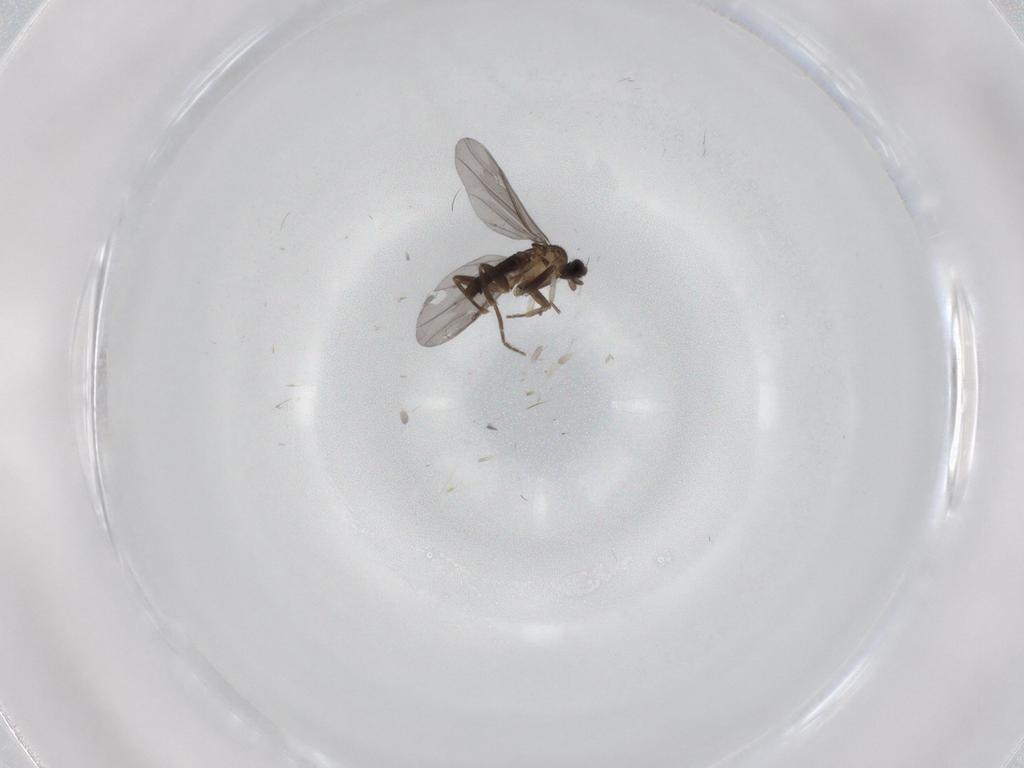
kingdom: Animalia
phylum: Arthropoda
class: Insecta
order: Diptera
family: Phoridae
